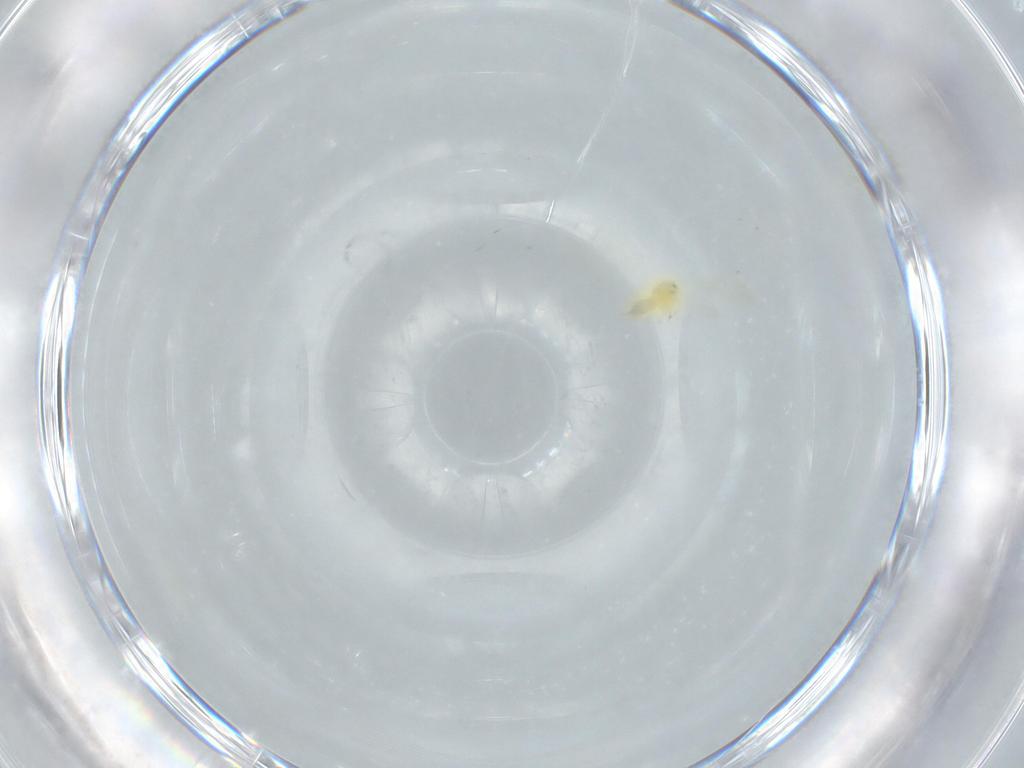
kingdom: Animalia
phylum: Arthropoda
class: Insecta
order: Hemiptera
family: Aleyrodidae
